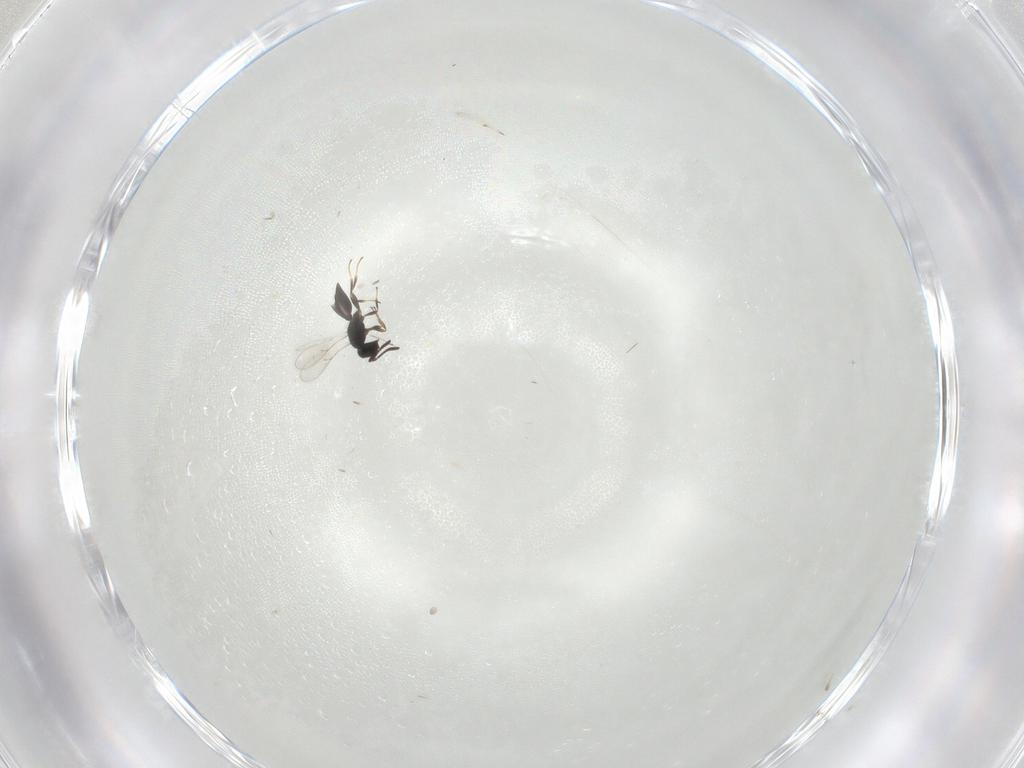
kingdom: Animalia
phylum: Arthropoda
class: Insecta
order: Hymenoptera
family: Scelionidae
